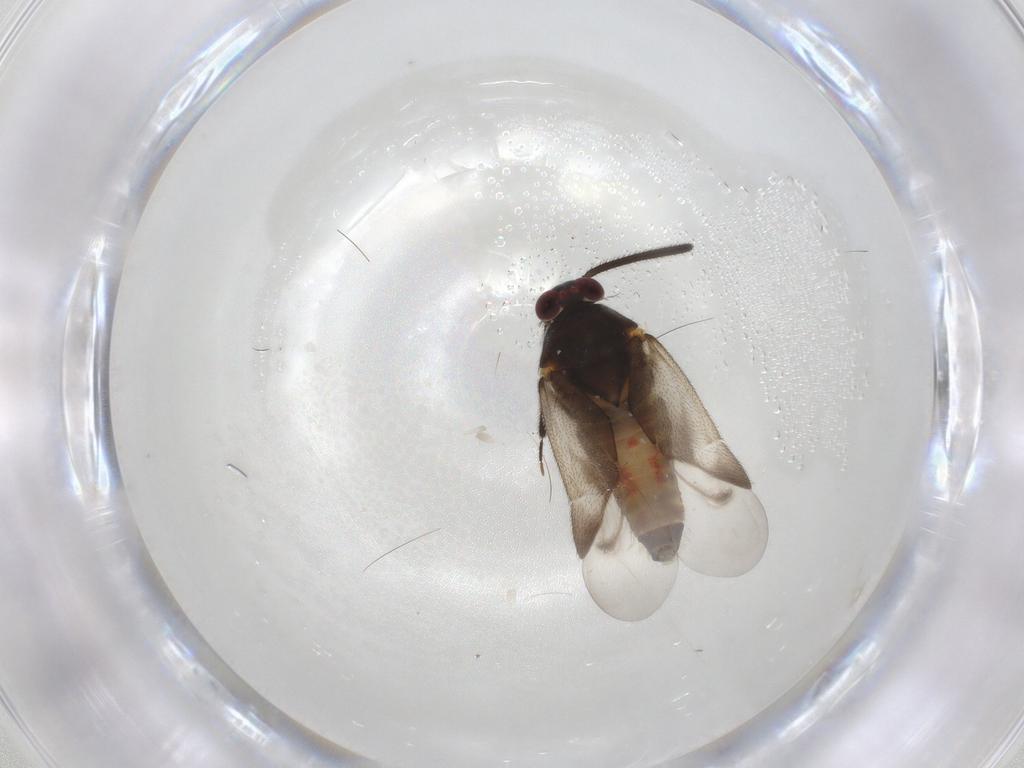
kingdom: Animalia
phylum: Arthropoda
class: Insecta
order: Hemiptera
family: Miridae
